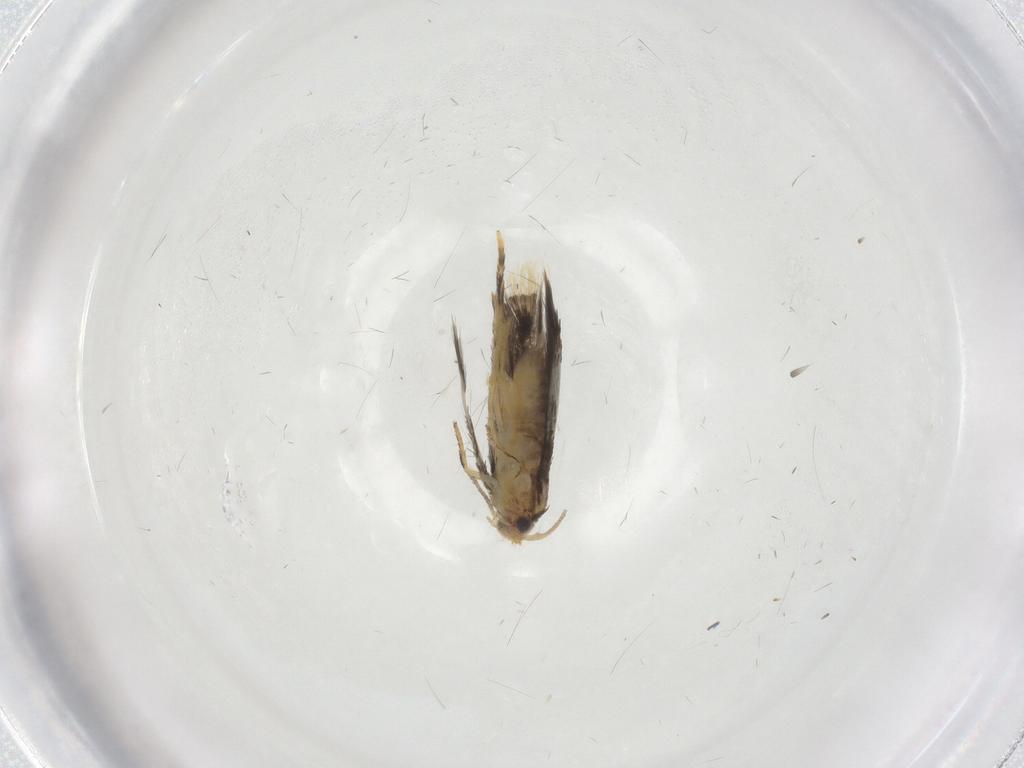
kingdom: Animalia
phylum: Arthropoda
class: Insecta
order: Lepidoptera
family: Nepticulidae
